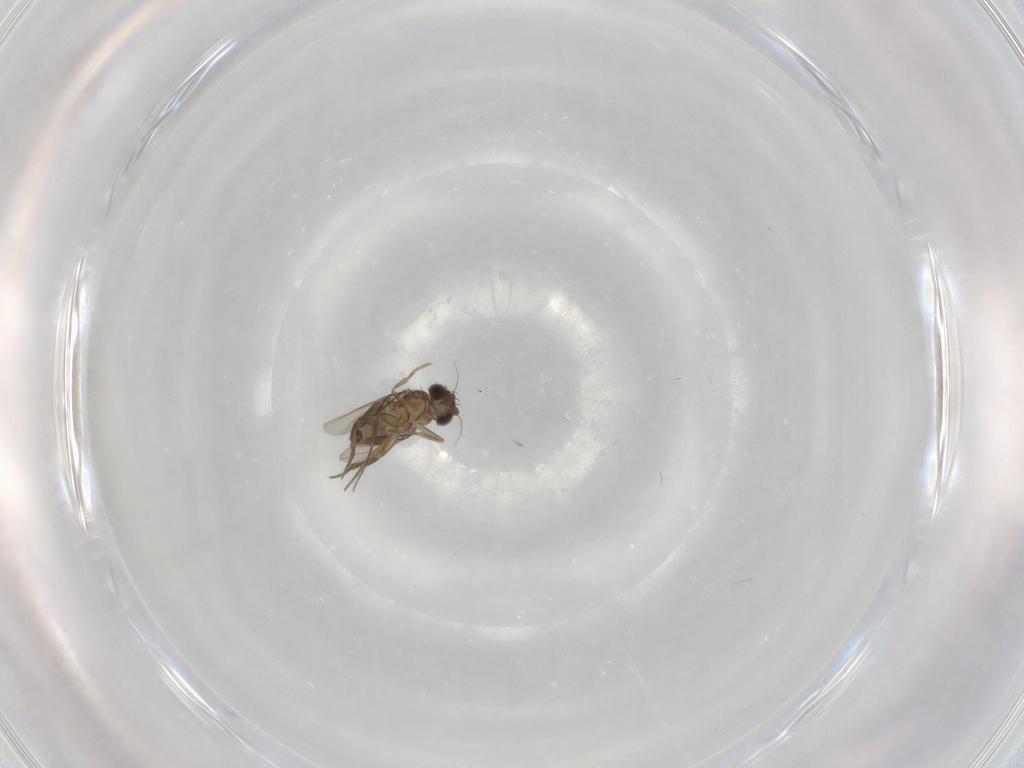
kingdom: Animalia
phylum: Arthropoda
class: Insecta
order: Diptera
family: Phoridae
